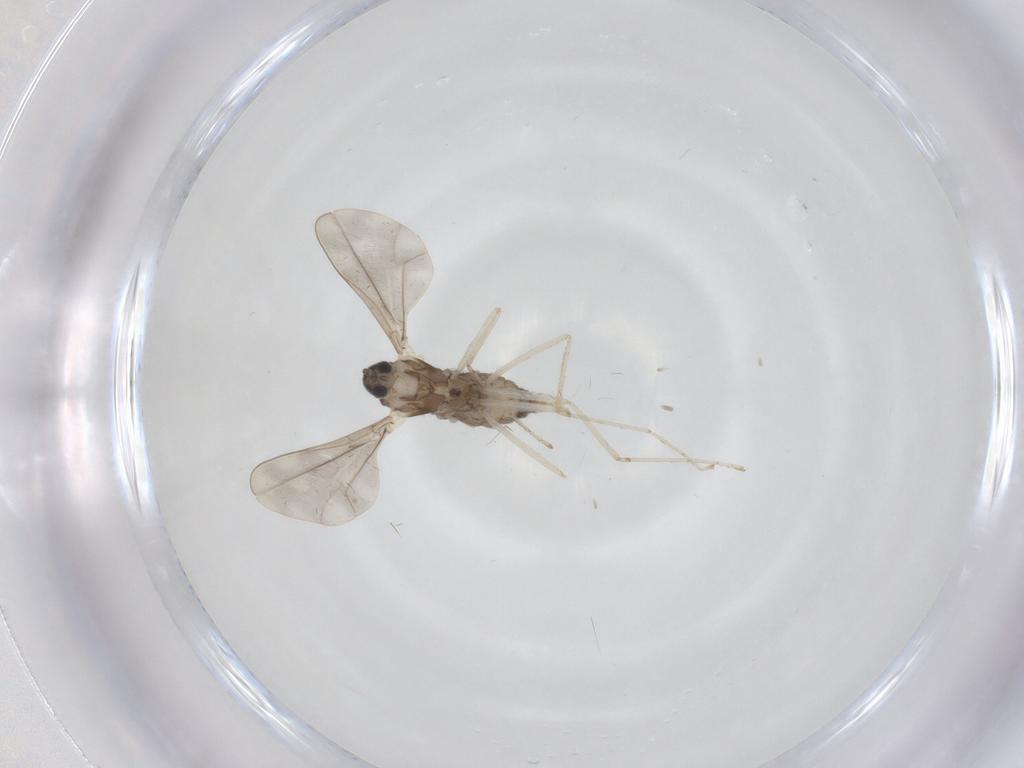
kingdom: Animalia
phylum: Arthropoda
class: Insecta
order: Diptera
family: Cecidomyiidae
